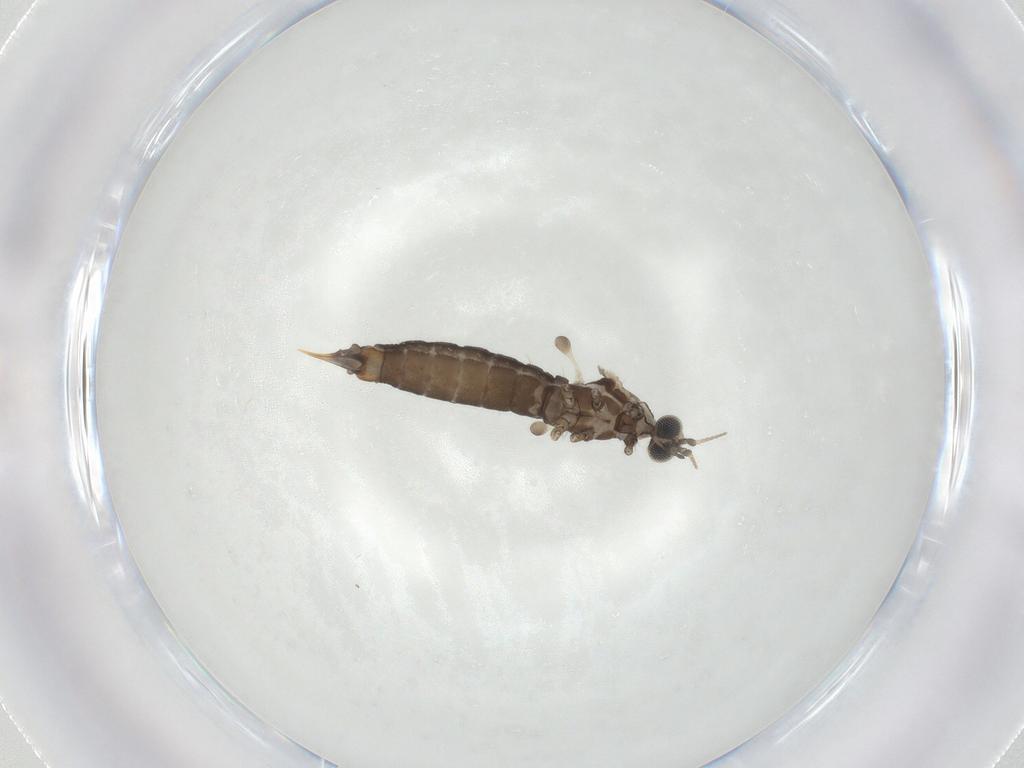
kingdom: Animalia
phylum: Arthropoda
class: Insecta
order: Diptera
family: Limoniidae
